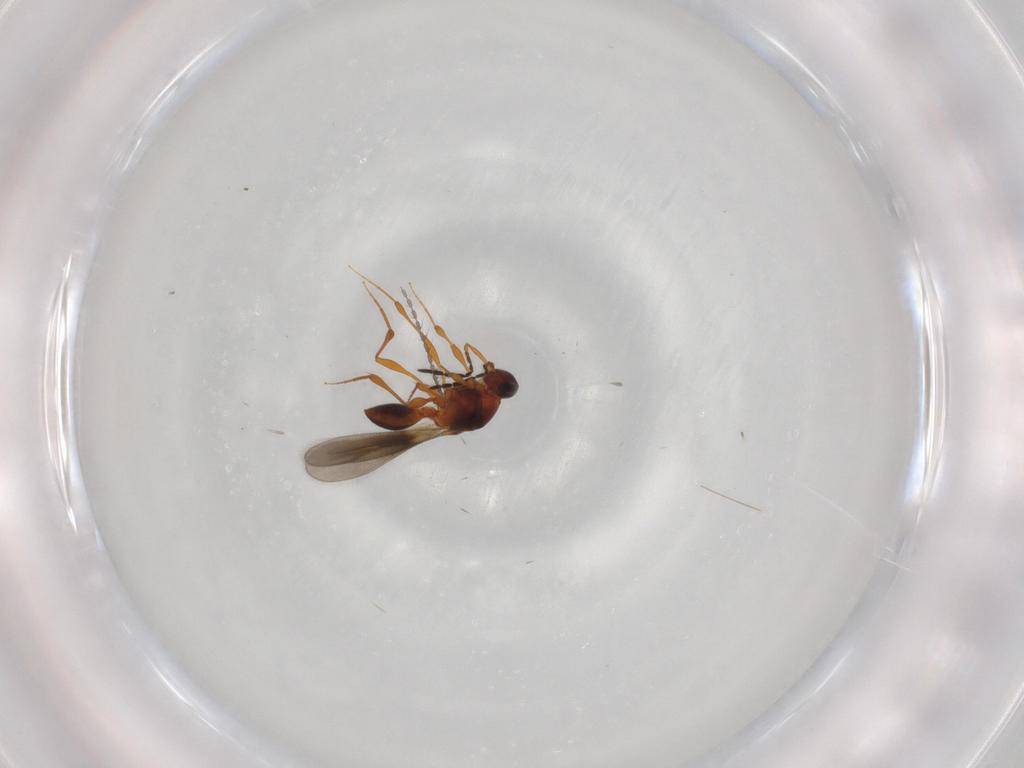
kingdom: Animalia
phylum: Arthropoda
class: Insecta
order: Hymenoptera
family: Platygastridae
